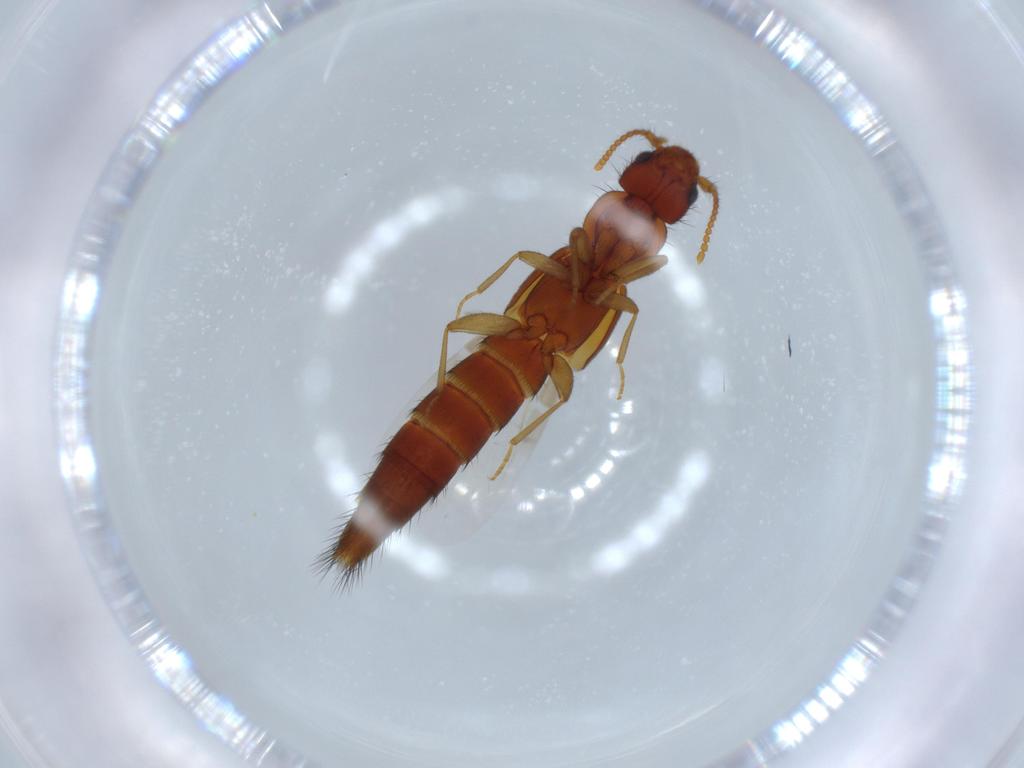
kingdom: Animalia
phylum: Arthropoda
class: Insecta
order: Coleoptera
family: Staphylinidae
